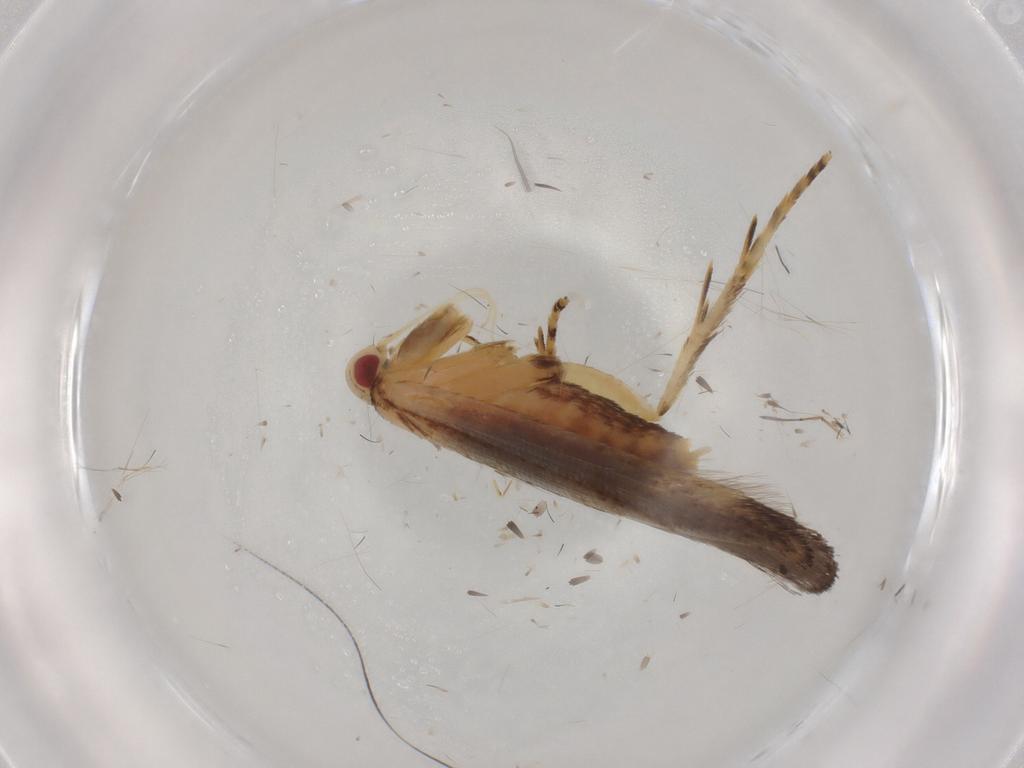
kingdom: Animalia
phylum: Arthropoda
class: Insecta
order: Lepidoptera
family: Cosmopterigidae
